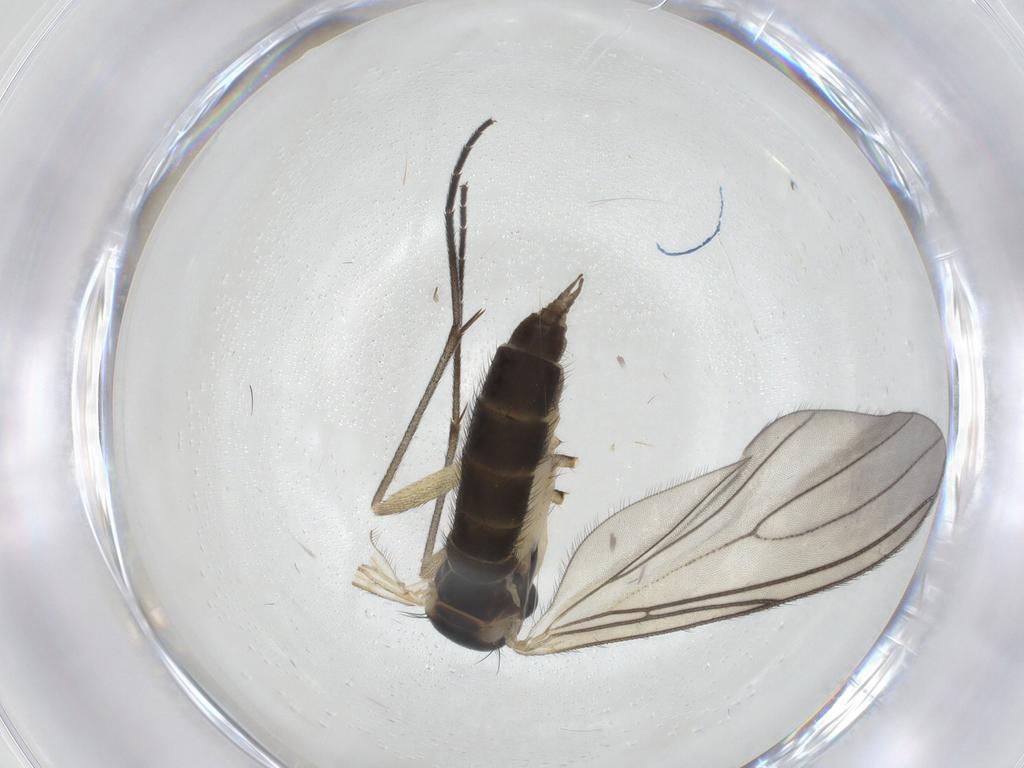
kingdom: Animalia
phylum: Arthropoda
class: Insecta
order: Diptera
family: Sciaridae
